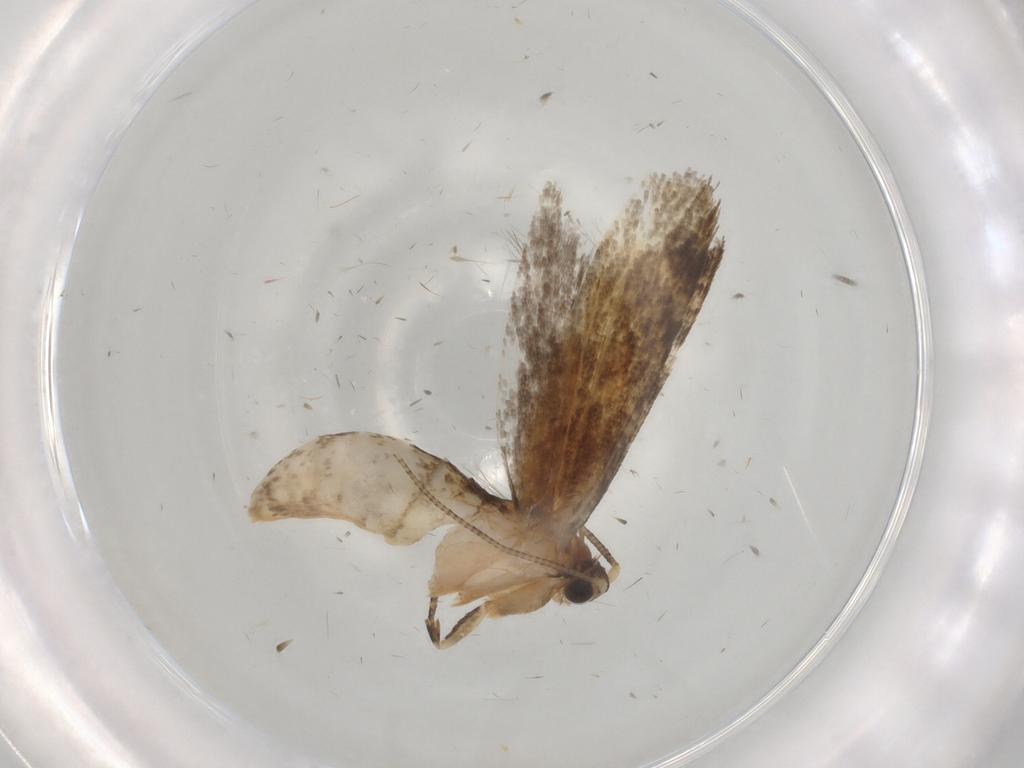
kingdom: Animalia
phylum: Arthropoda
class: Insecta
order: Lepidoptera
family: Tineidae
